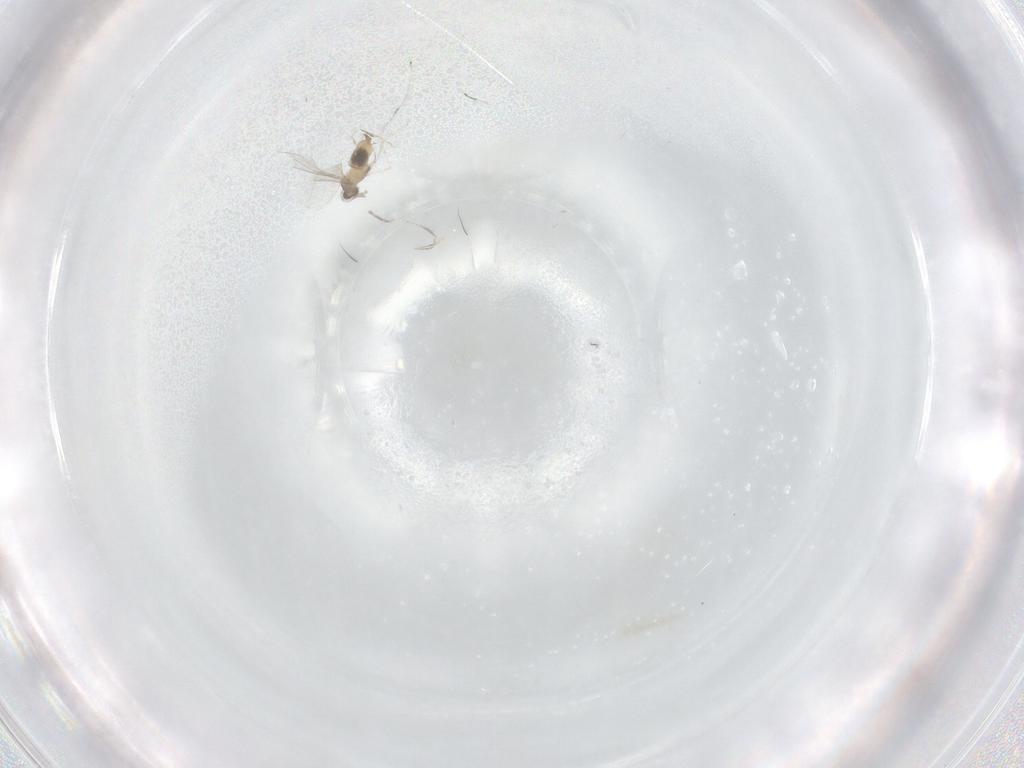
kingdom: Animalia
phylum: Arthropoda
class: Insecta
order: Diptera
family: Cecidomyiidae
